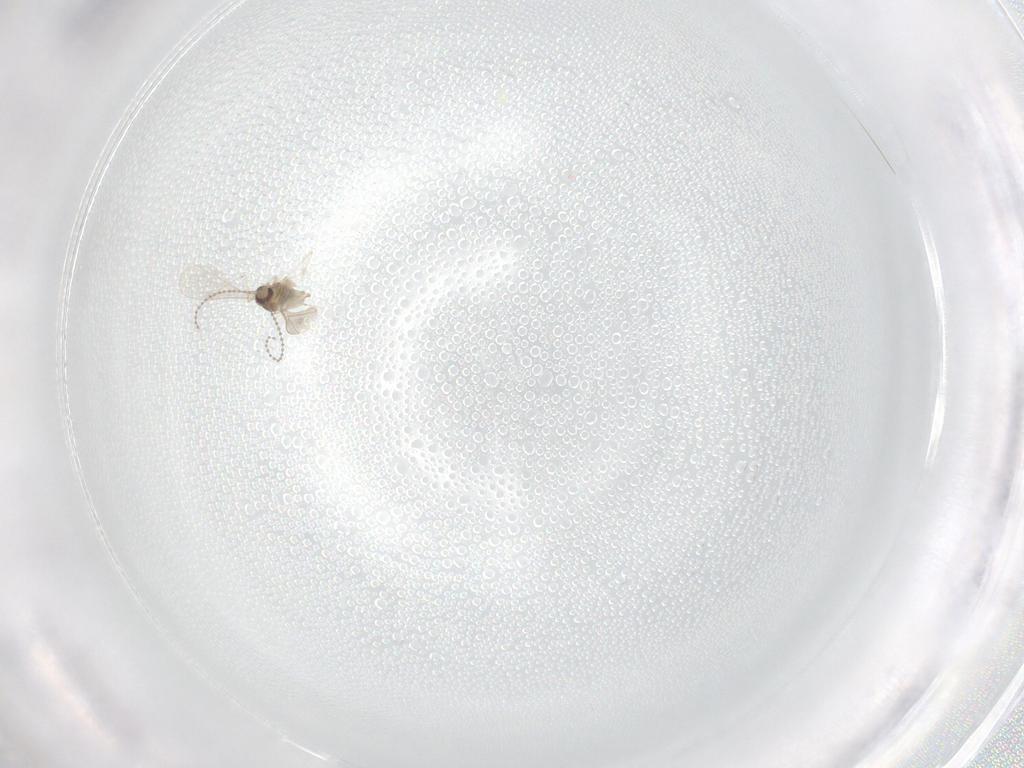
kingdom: Animalia
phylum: Arthropoda
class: Insecta
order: Diptera
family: Cecidomyiidae
